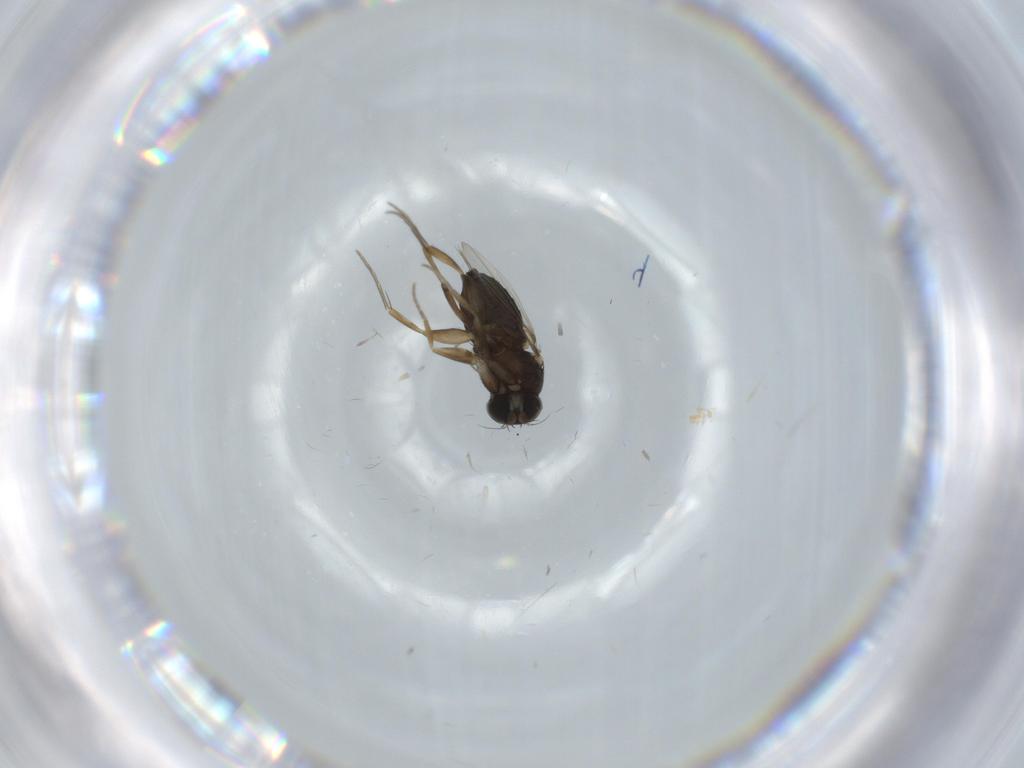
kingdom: Animalia
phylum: Arthropoda
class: Insecta
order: Diptera
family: Phoridae
